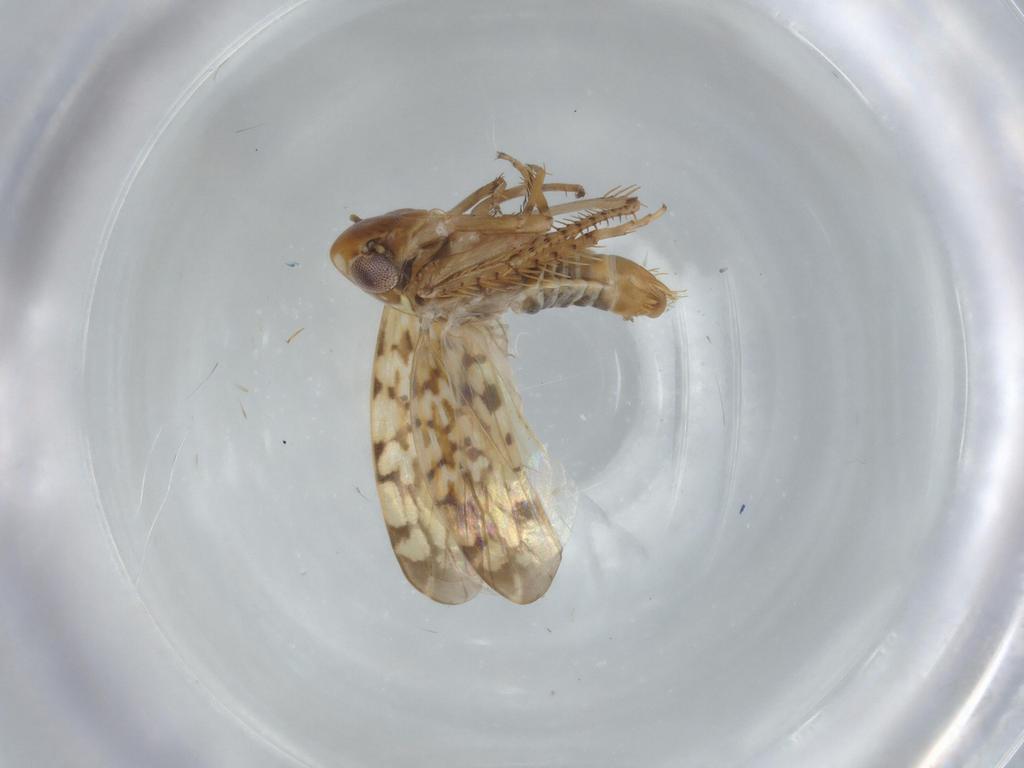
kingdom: Animalia
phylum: Arthropoda
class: Insecta
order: Hemiptera
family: Cicadellidae
